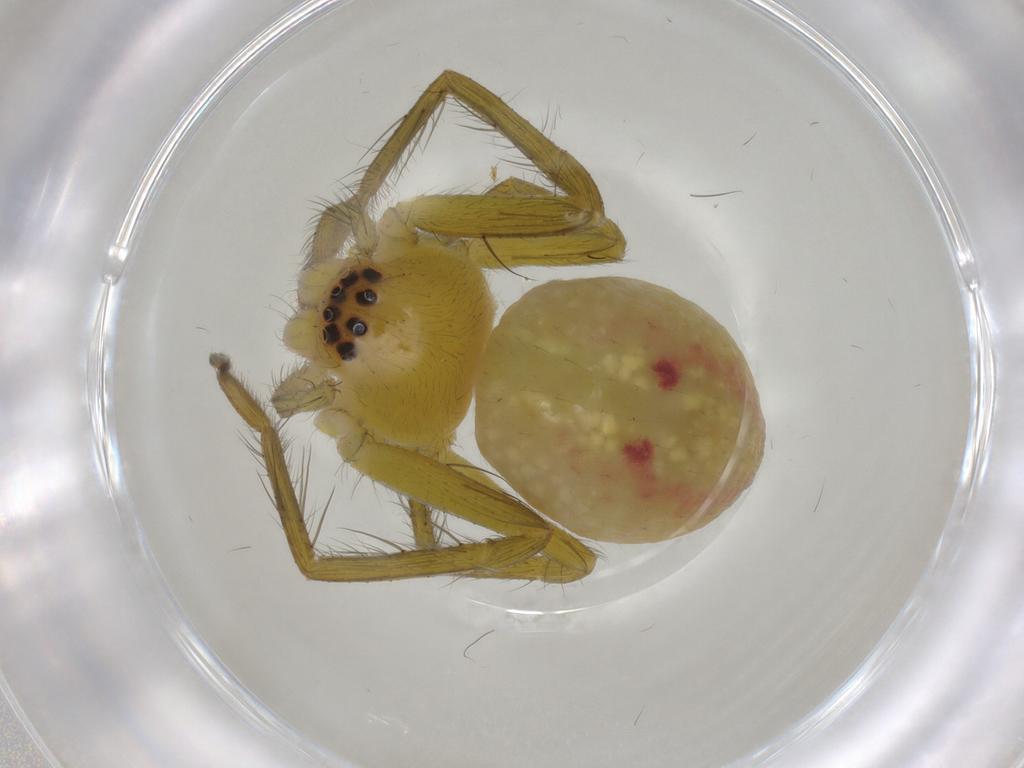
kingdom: Animalia
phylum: Arthropoda
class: Arachnida
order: Araneae
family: Sparassidae
